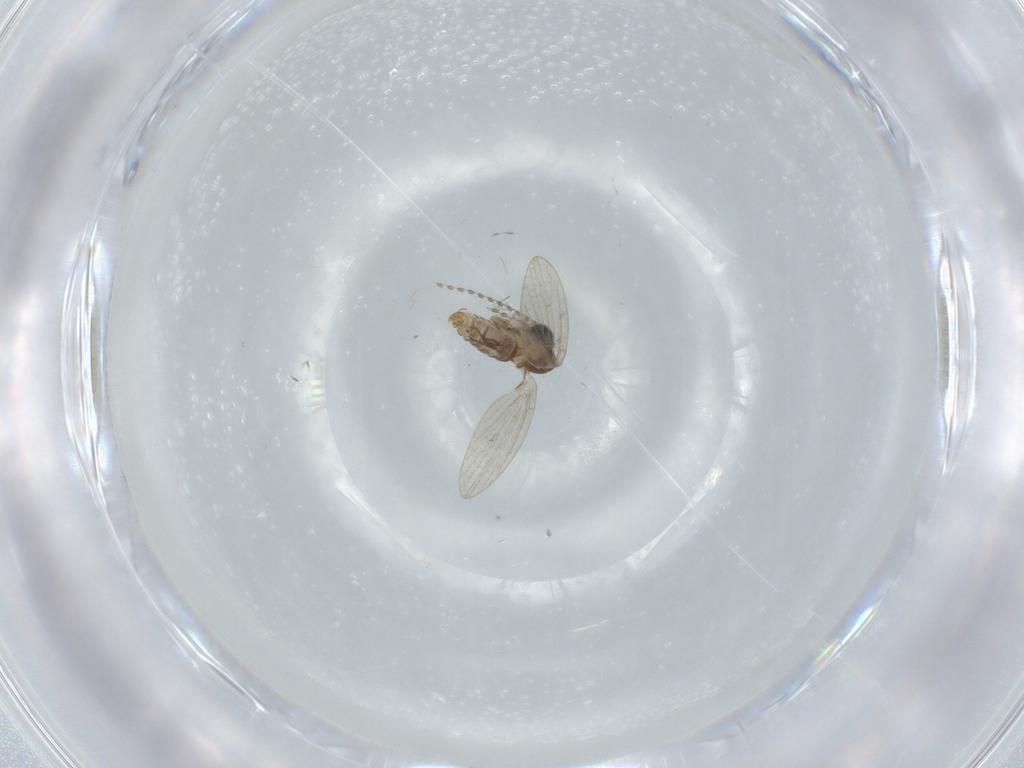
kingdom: Animalia
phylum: Arthropoda
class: Insecta
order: Diptera
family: Psychodidae
